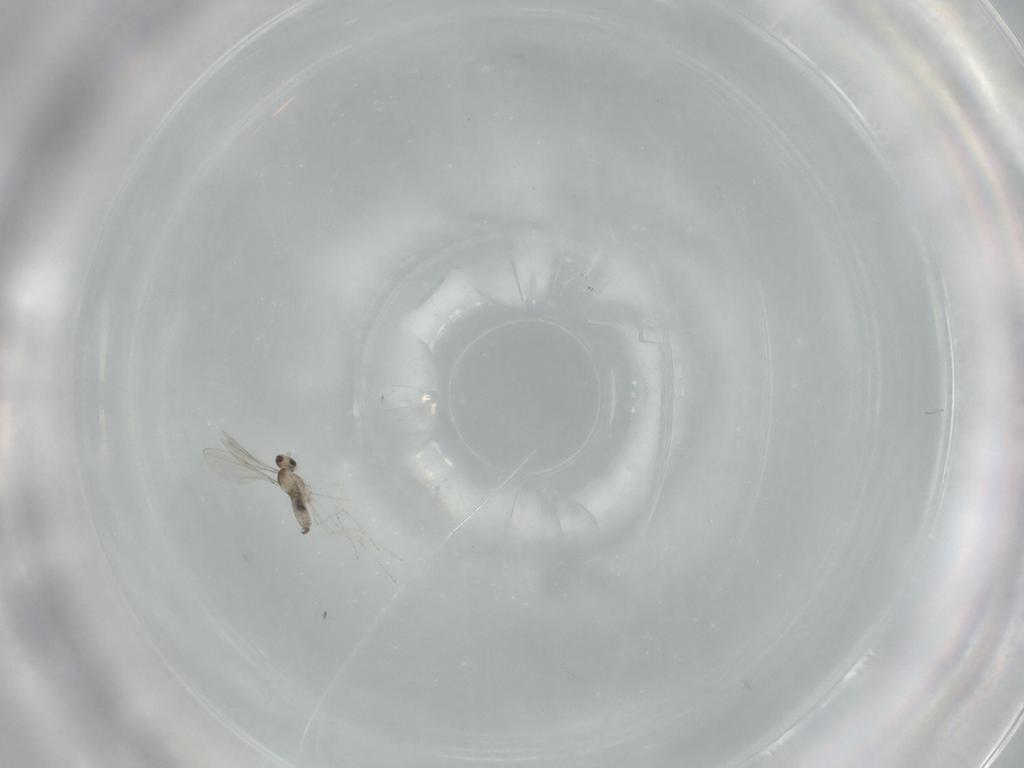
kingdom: Animalia
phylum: Arthropoda
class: Insecta
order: Diptera
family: Cecidomyiidae
